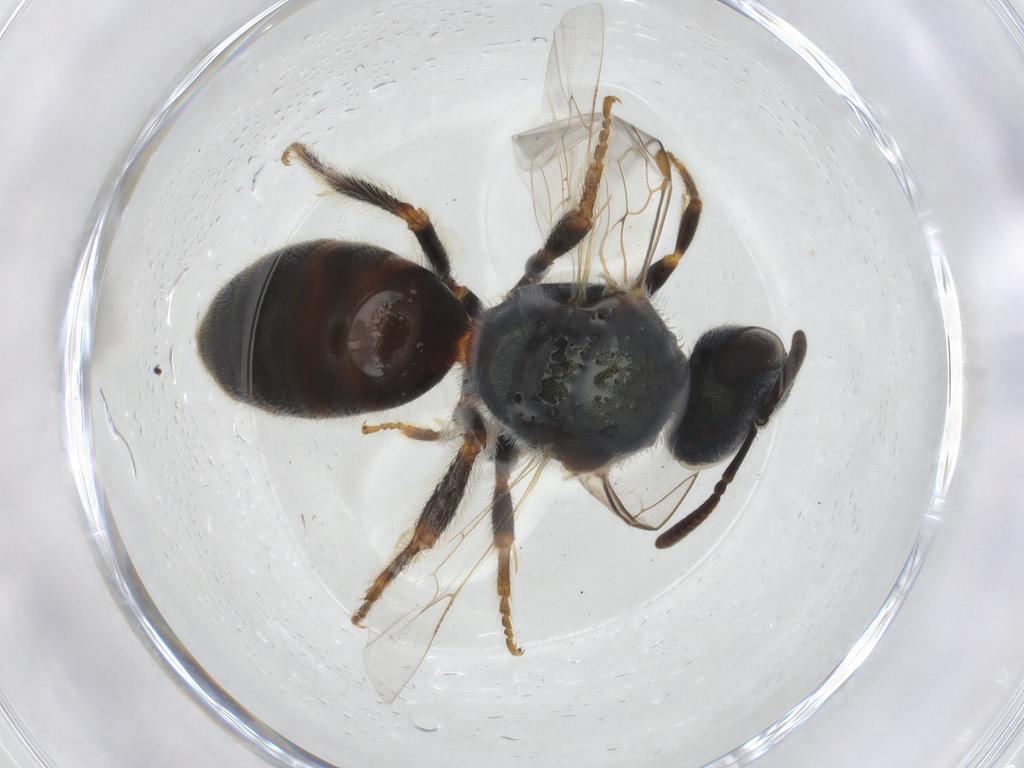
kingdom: Animalia
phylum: Arthropoda
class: Insecta
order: Hymenoptera
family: Halictidae
